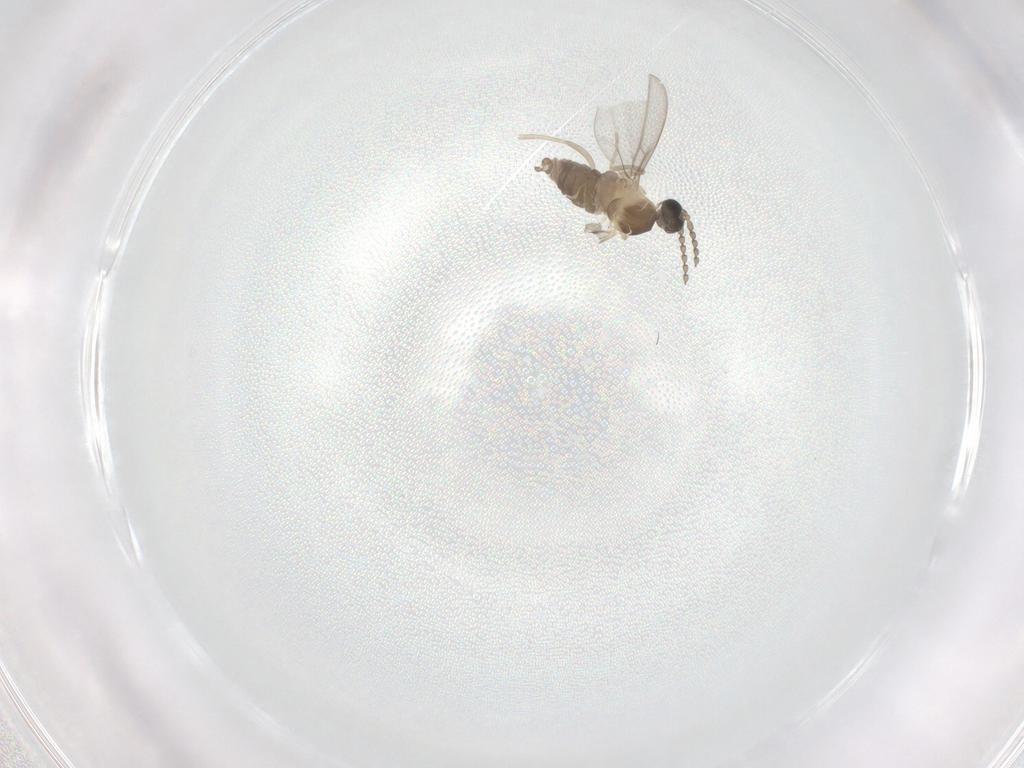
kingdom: Animalia
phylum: Arthropoda
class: Insecta
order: Diptera
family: Cecidomyiidae
